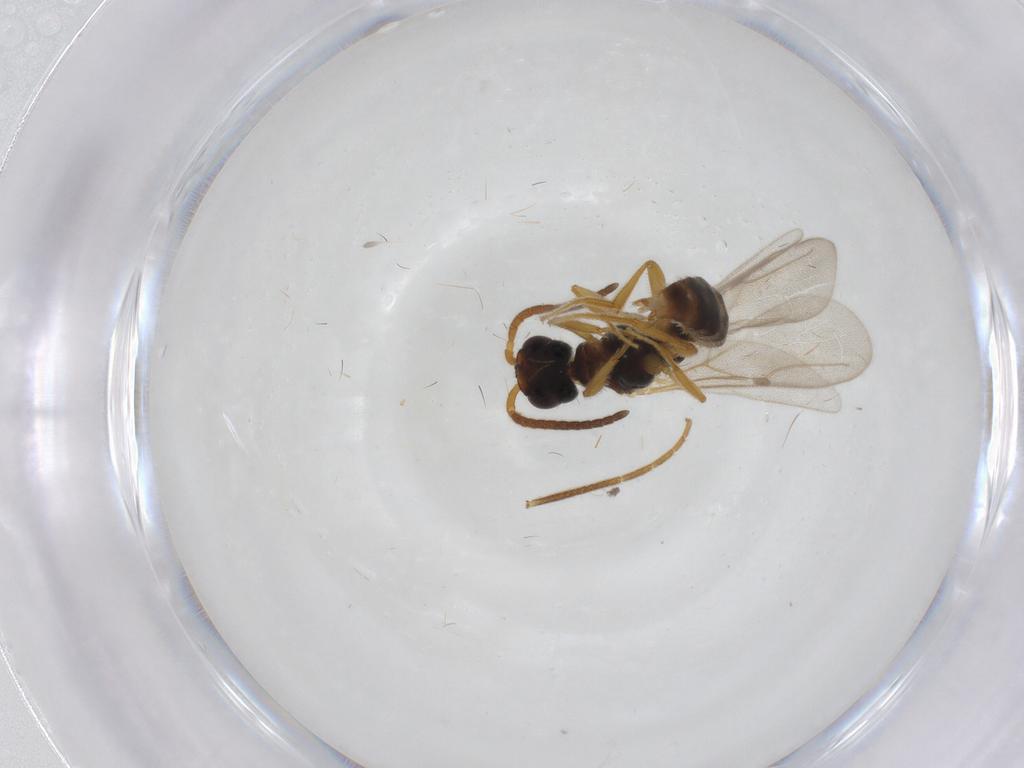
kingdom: Animalia
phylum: Arthropoda
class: Insecta
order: Hymenoptera
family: Formicidae
